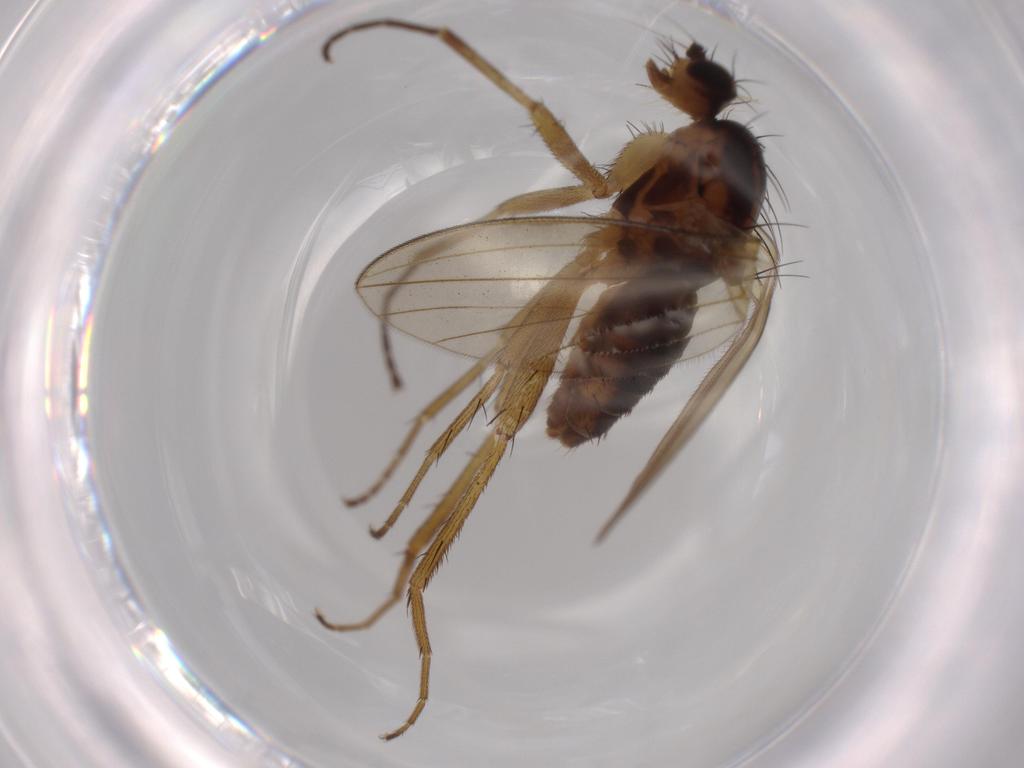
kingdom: Animalia
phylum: Arthropoda
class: Insecta
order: Diptera
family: Lonchopteridae
